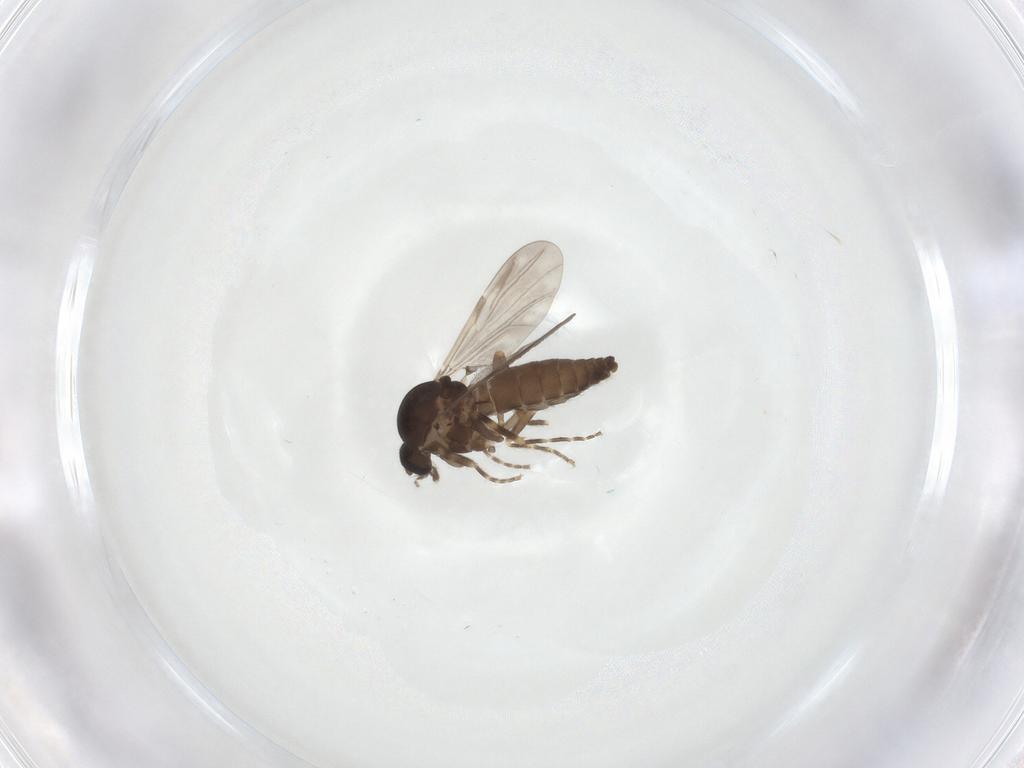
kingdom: Animalia
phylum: Arthropoda
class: Insecta
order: Diptera
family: Ceratopogonidae
